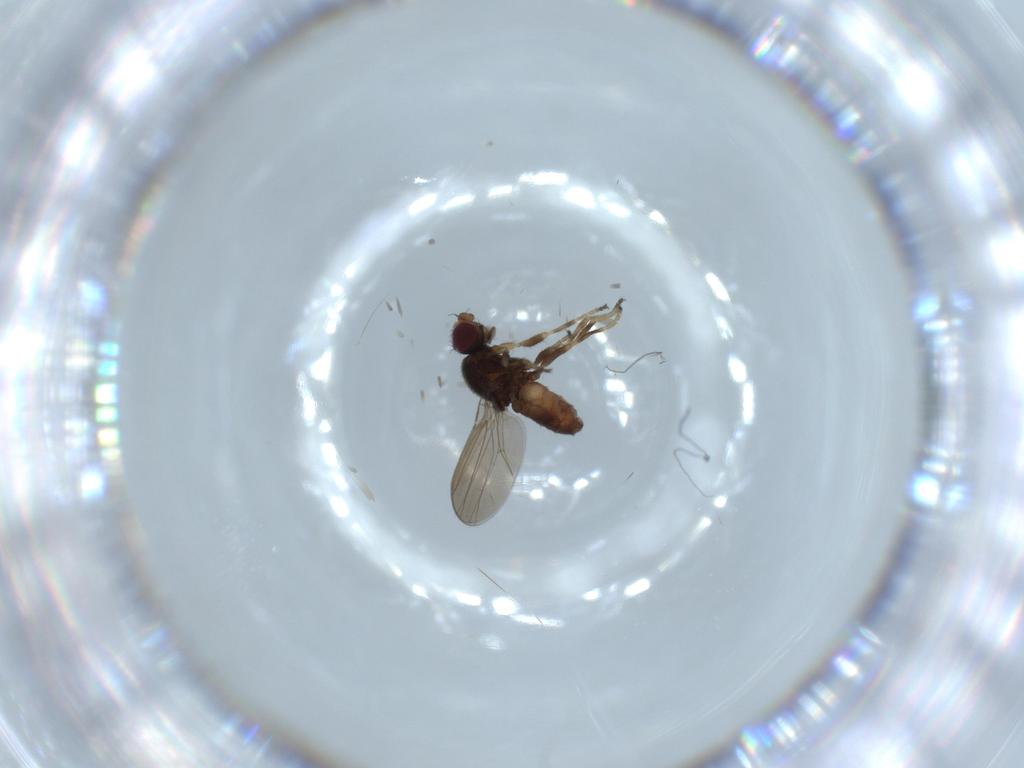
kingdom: Animalia
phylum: Arthropoda
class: Insecta
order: Diptera
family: Calliphoridae
